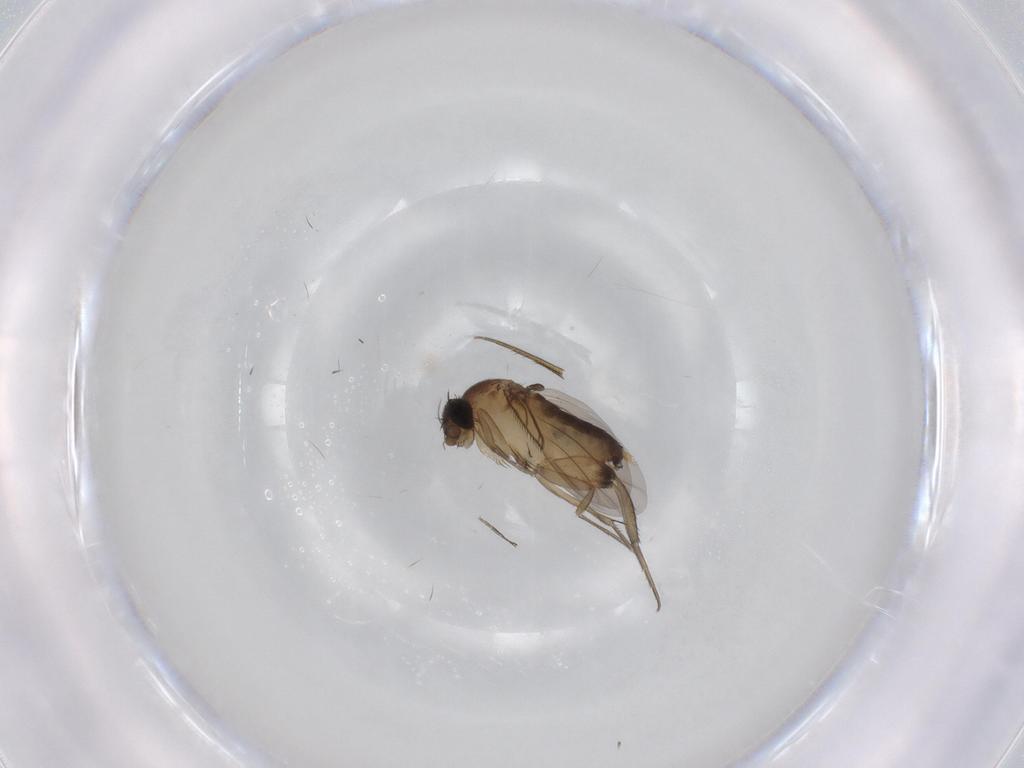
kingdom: Animalia
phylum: Arthropoda
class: Insecta
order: Diptera
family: Phoridae
